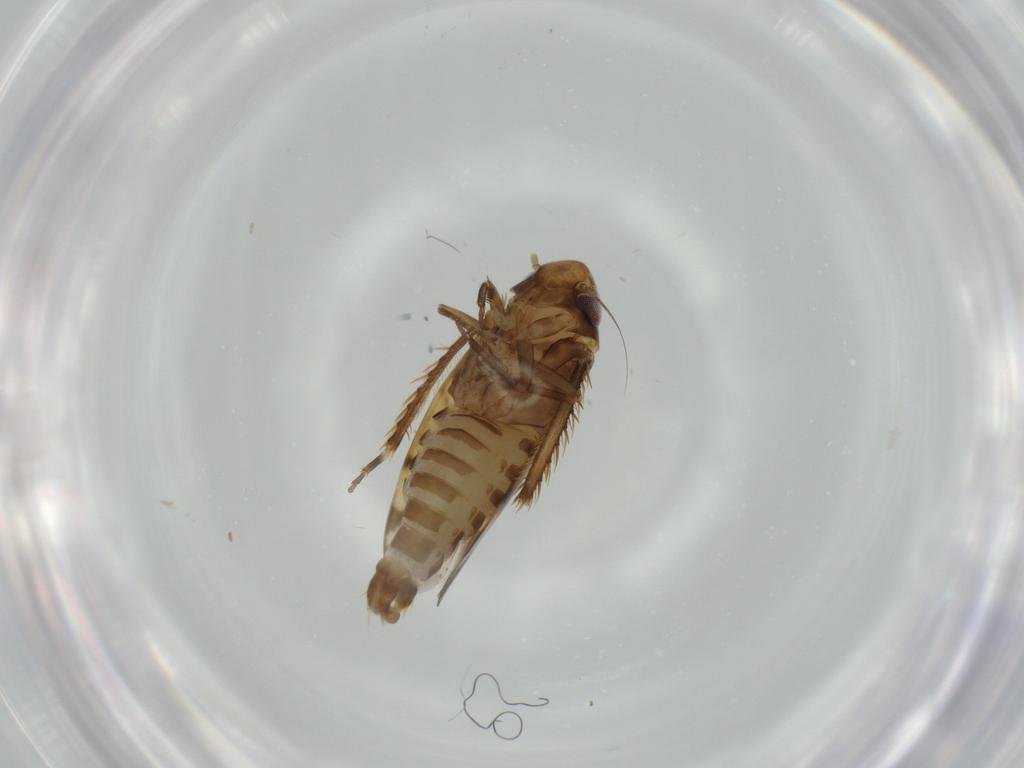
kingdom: Animalia
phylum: Arthropoda
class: Insecta
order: Hemiptera
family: Cicadellidae
